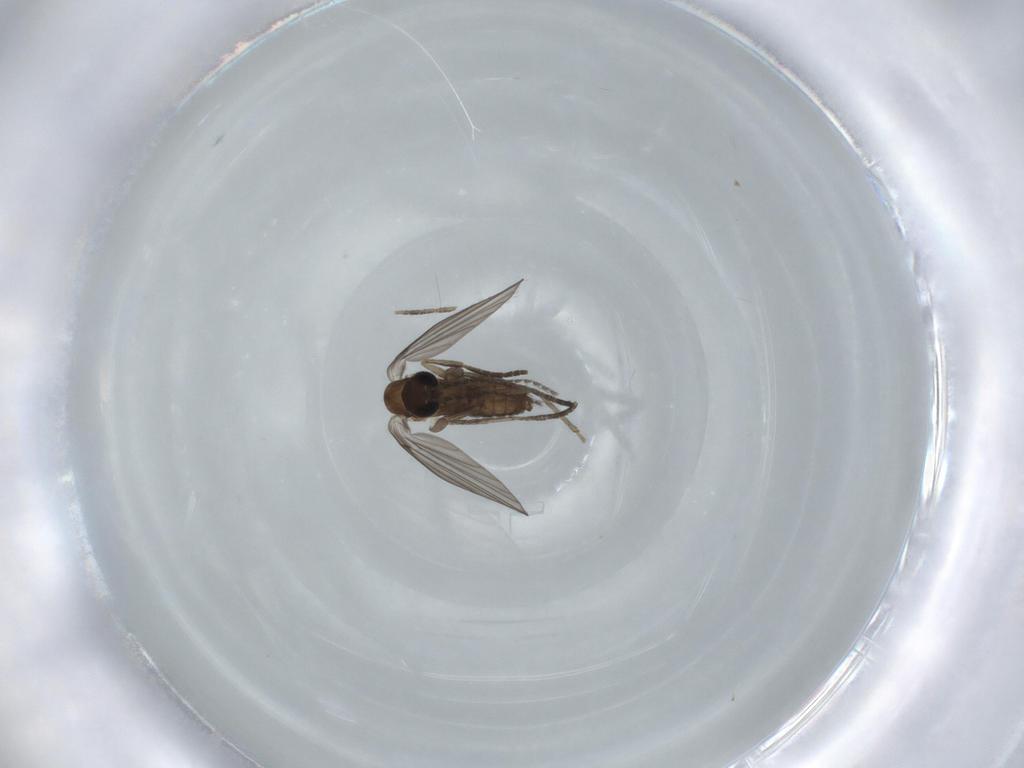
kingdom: Animalia
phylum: Arthropoda
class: Insecta
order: Diptera
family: Psychodidae
